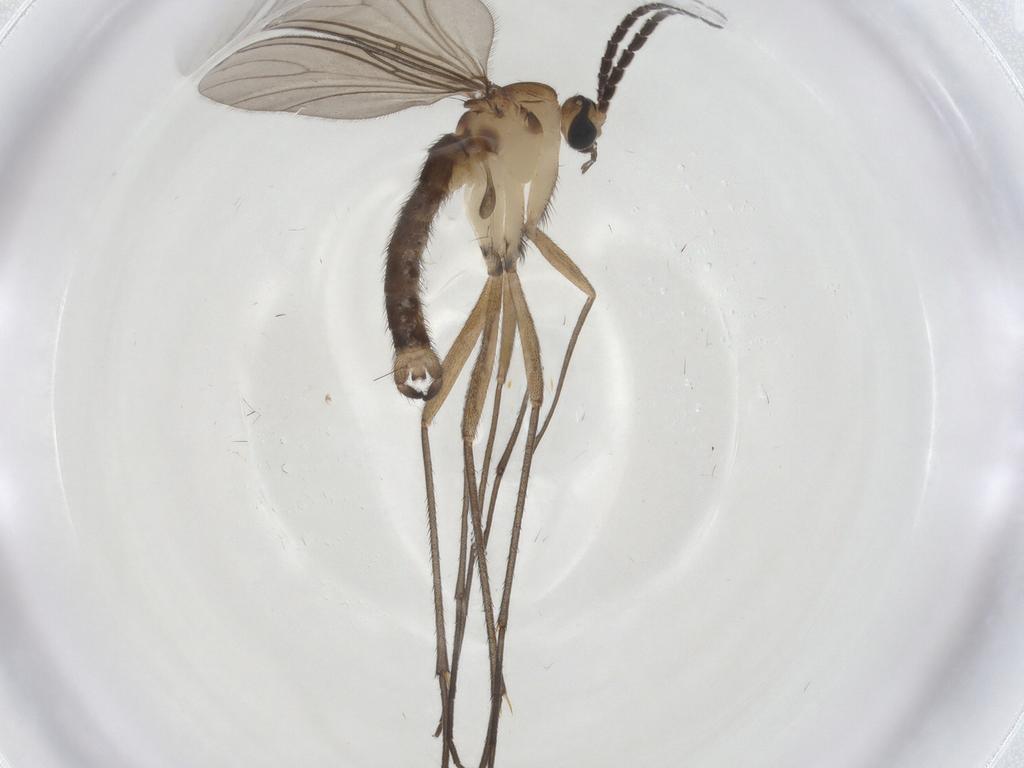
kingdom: Animalia
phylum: Arthropoda
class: Insecta
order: Diptera
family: Sciaridae
